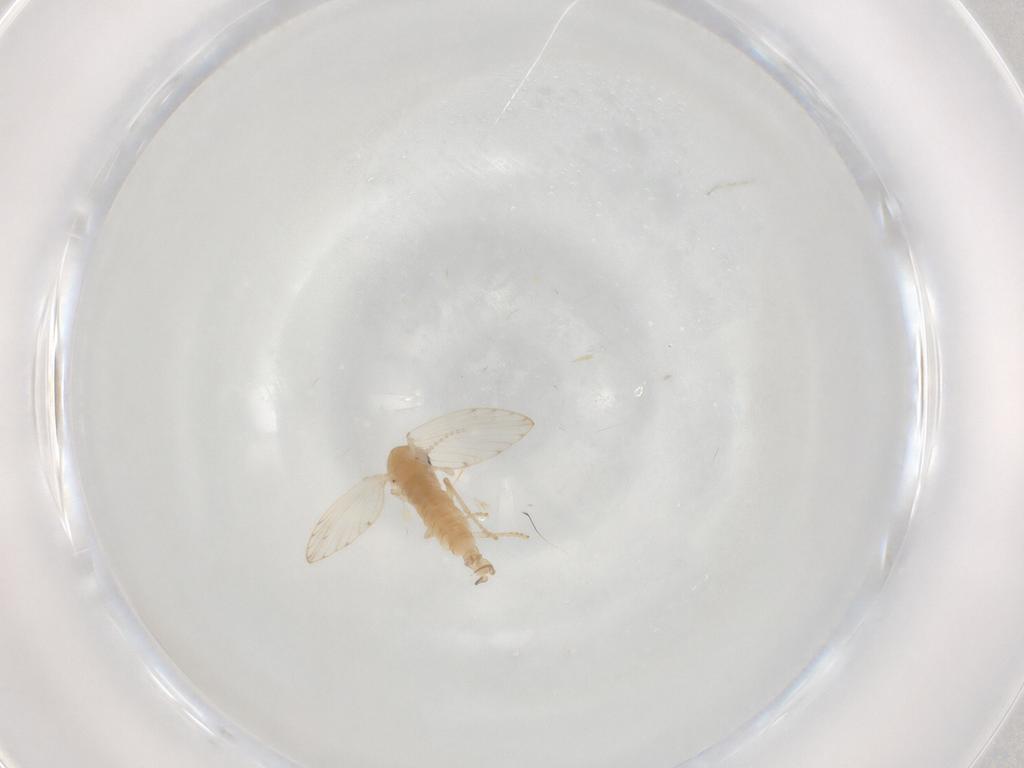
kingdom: Animalia
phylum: Arthropoda
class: Insecta
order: Diptera
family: Psychodidae
